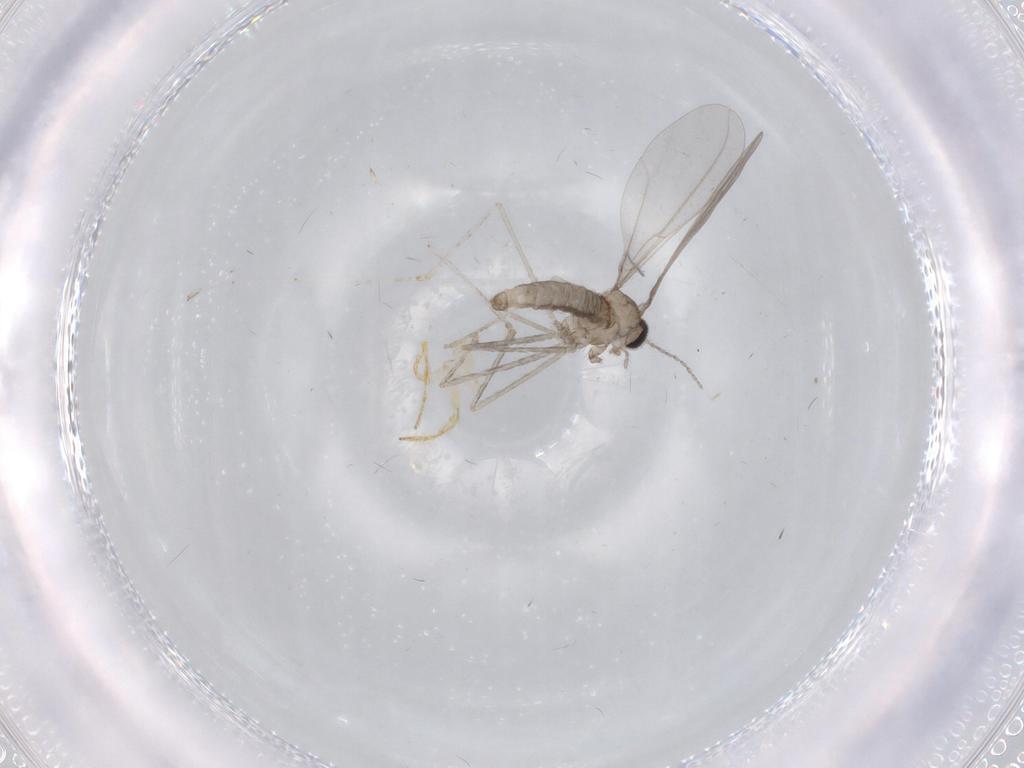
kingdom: Animalia
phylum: Arthropoda
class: Insecta
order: Diptera
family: Cecidomyiidae
